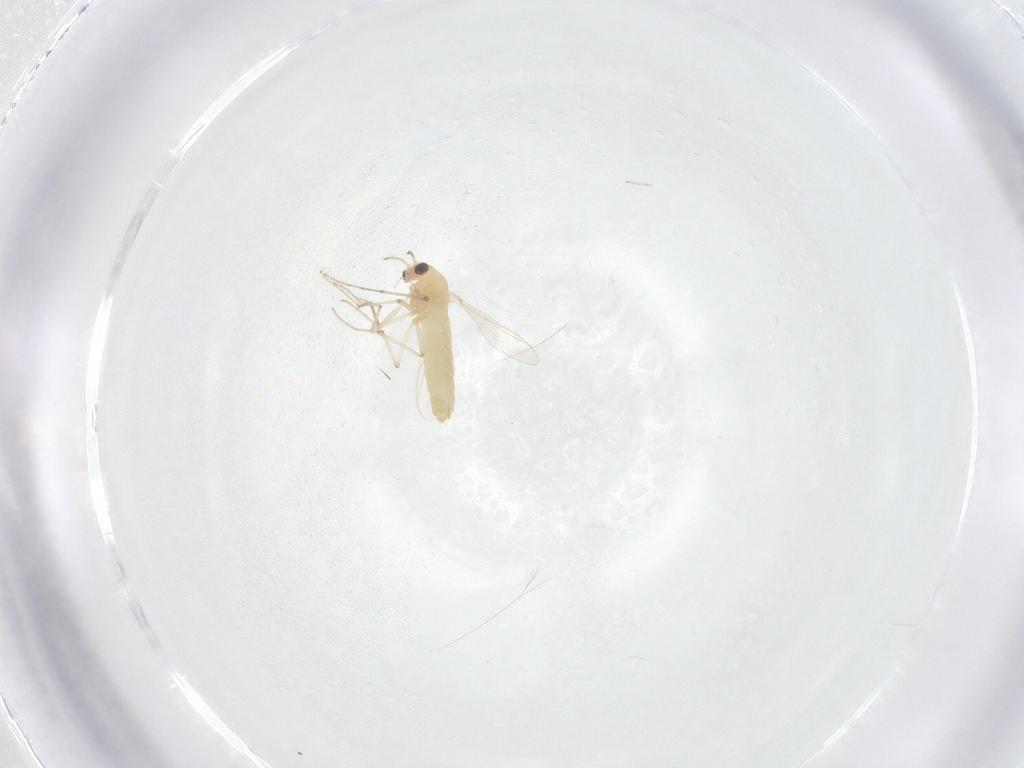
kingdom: Animalia
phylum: Arthropoda
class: Insecta
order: Diptera
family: Chironomidae
